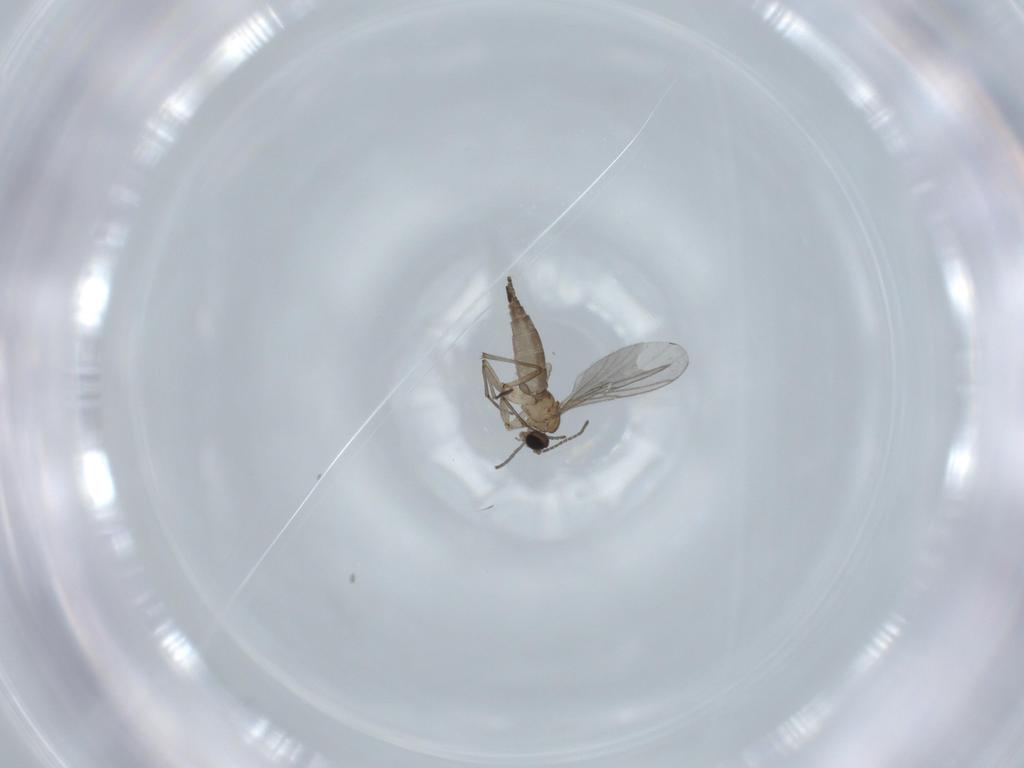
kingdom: Animalia
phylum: Arthropoda
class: Insecta
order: Diptera
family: Sciaridae
